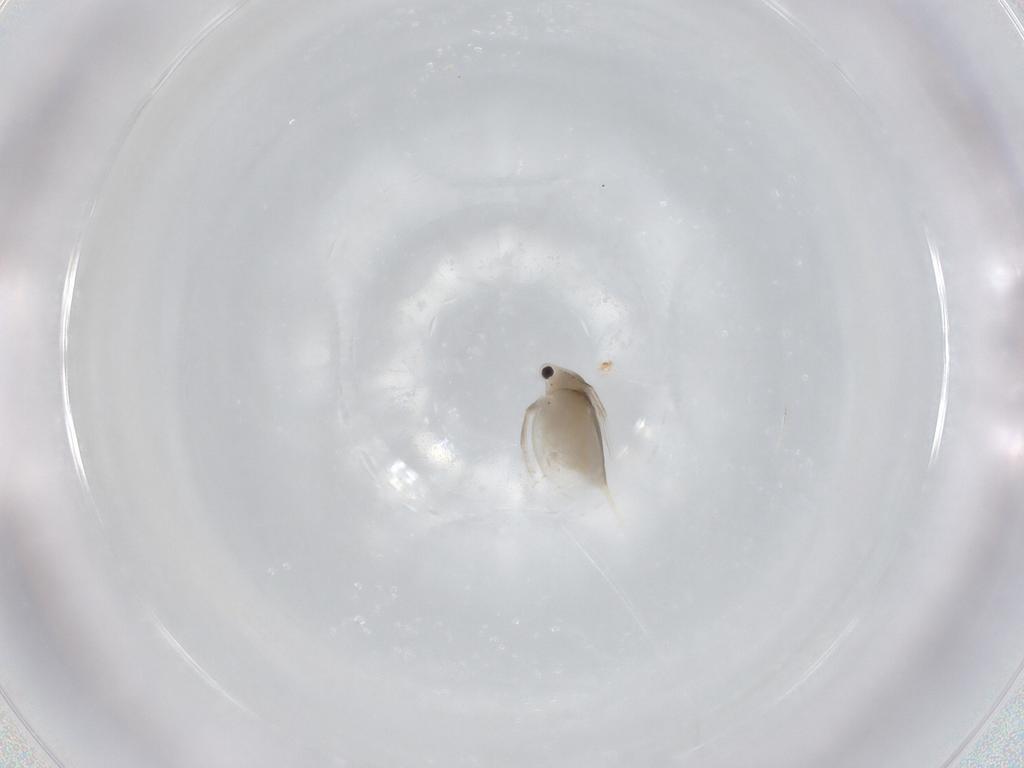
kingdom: Animalia
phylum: Arthropoda
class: Branchiopoda
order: Diplostraca
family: Daphniidae
